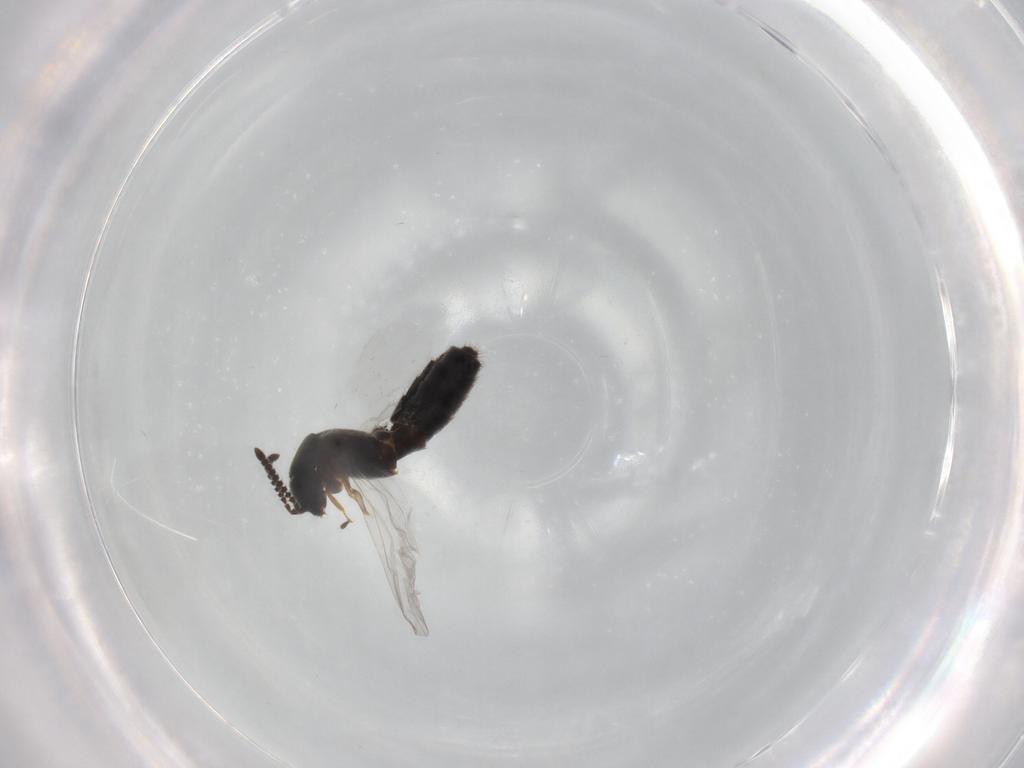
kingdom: Animalia
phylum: Arthropoda
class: Insecta
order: Coleoptera
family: Staphylinidae
